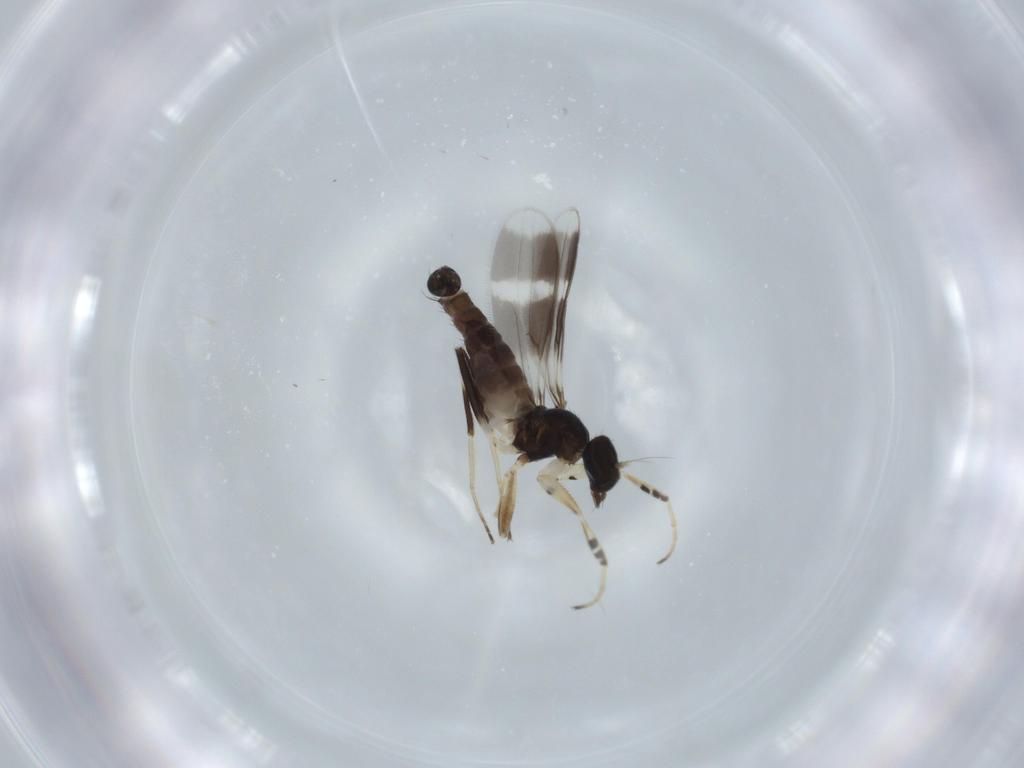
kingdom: Animalia
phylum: Arthropoda
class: Insecta
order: Diptera
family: Hybotidae
